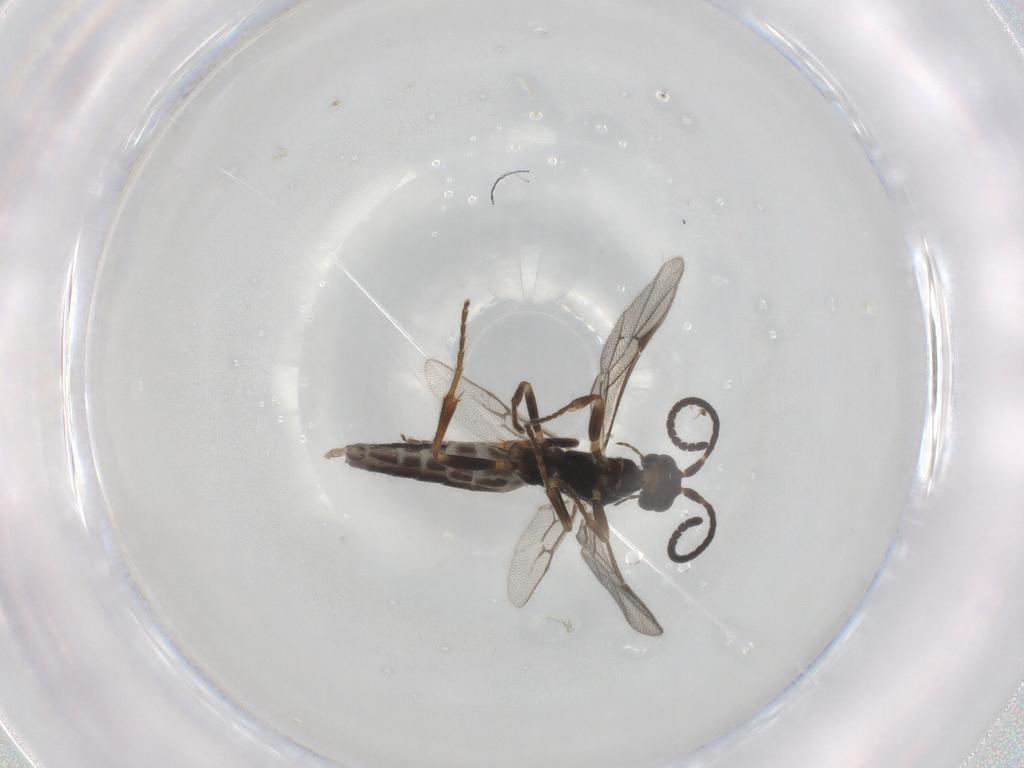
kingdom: Animalia
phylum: Arthropoda
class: Insecta
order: Hymenoptera
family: Ichneumonidae
